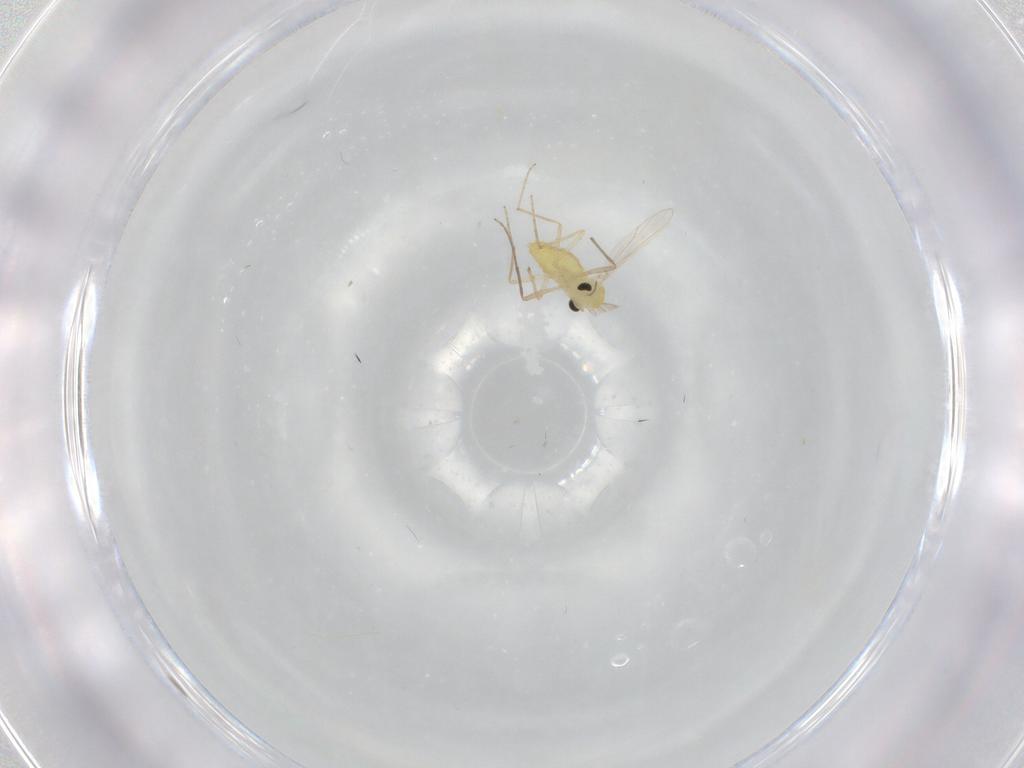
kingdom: Animalia
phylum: Arthropoda
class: Insecta
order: Diptera
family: Chironomidae
